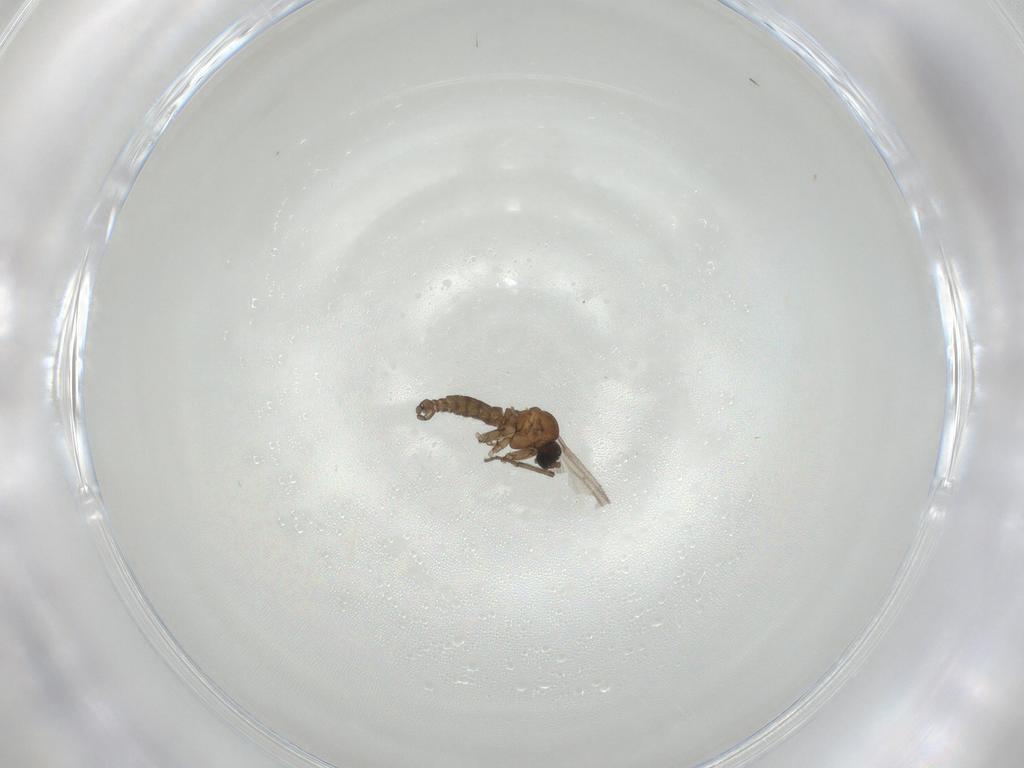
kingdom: Animalia
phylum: Arthropoda
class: Insecta
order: Diptera
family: Sciaridae
